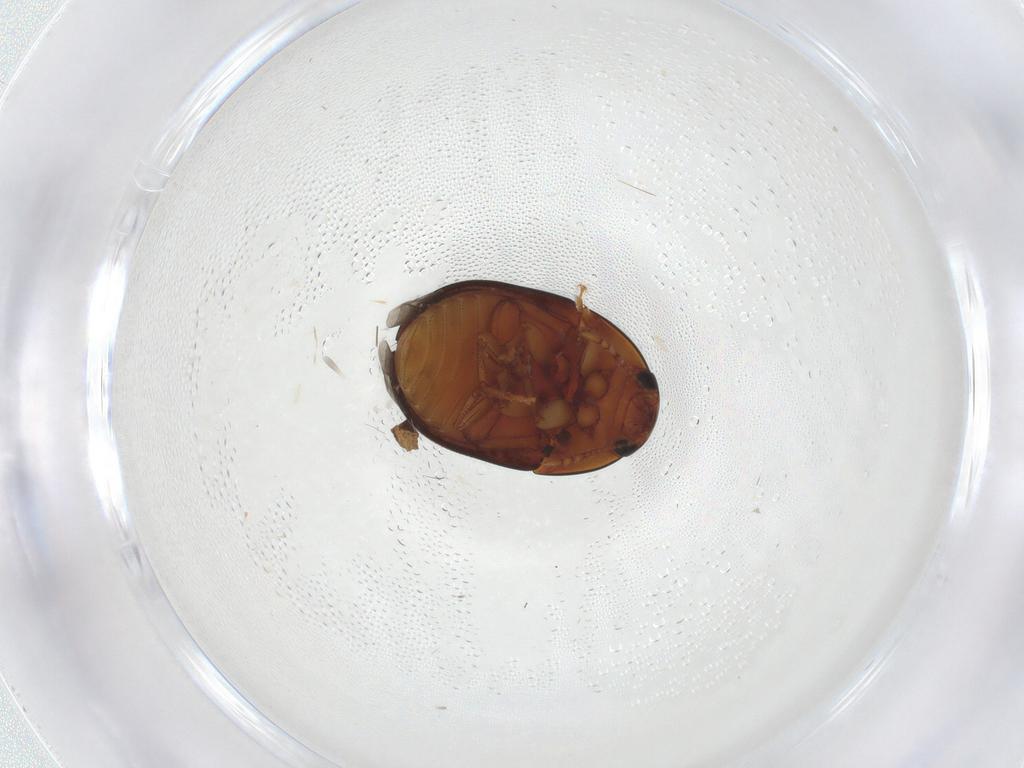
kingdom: Animalia
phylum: Arthropoda
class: Insecta
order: Coleoptera
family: Phalacridae
